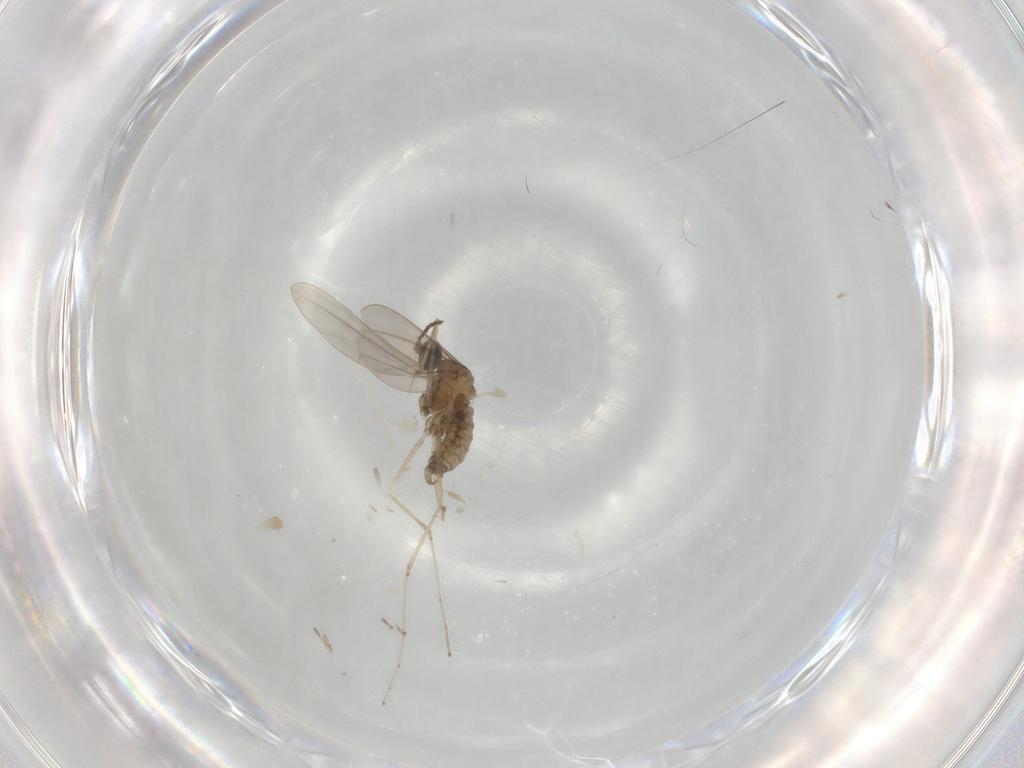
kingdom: Animalia
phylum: Arthropoda
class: Insecta
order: Diptera
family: Cecidomyiidae
